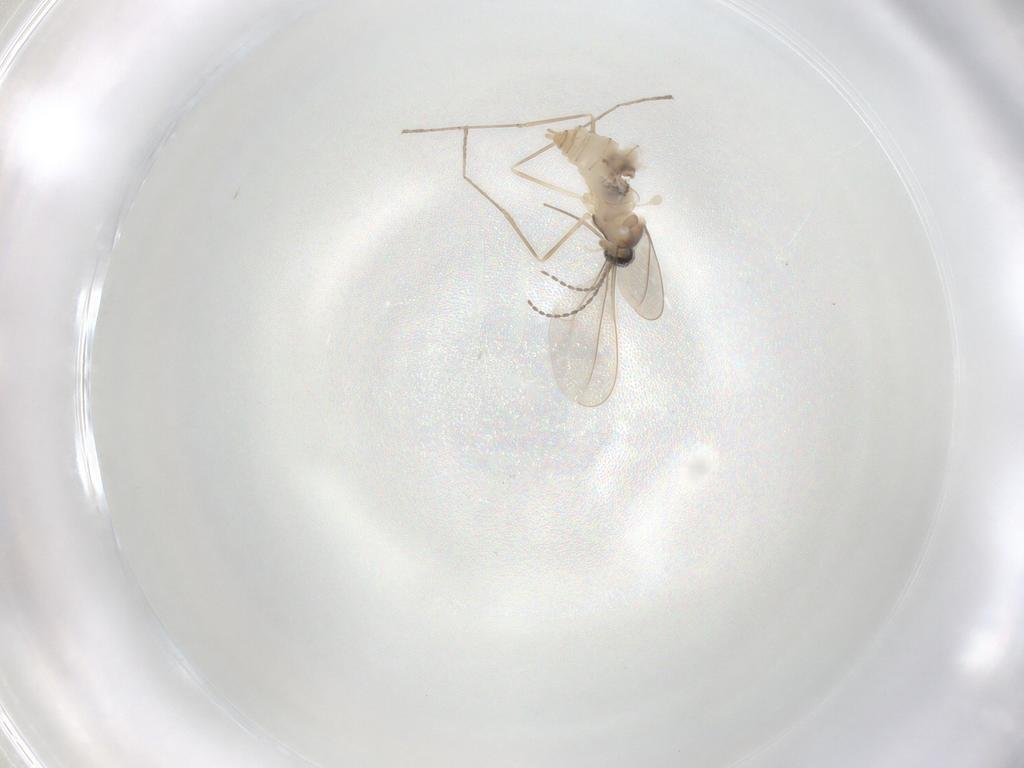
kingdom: Animalia
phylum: Arthropoda
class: Insecta
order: Diptera
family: Cecidomyiidae
